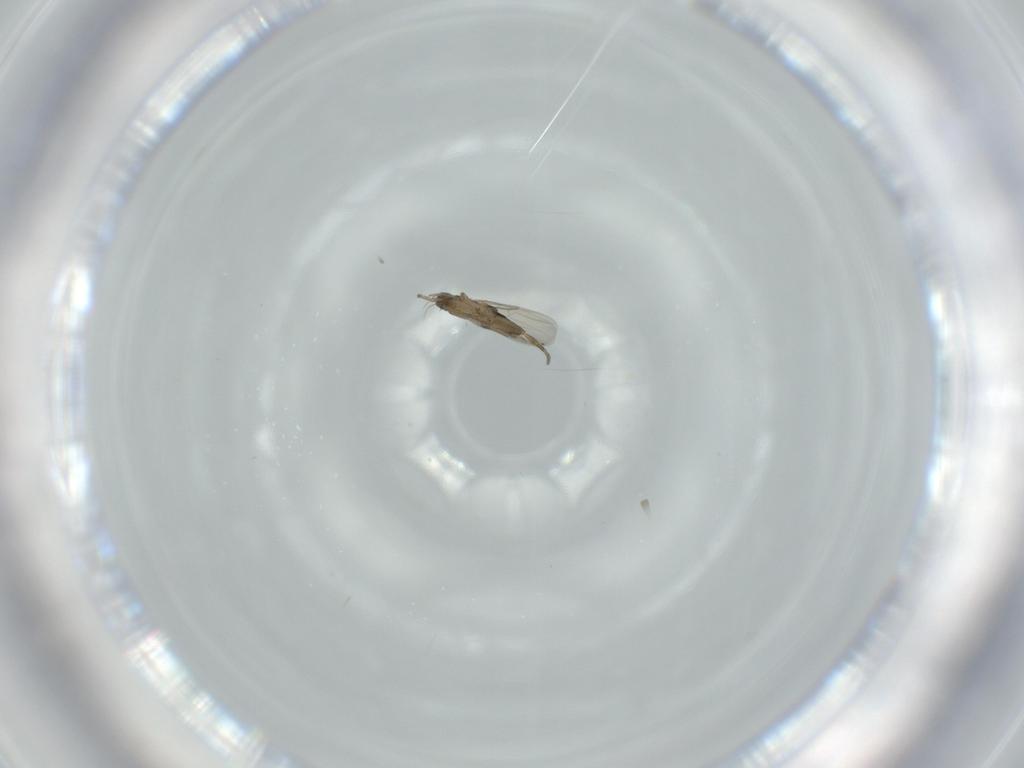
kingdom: Animalia
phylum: Arthropoda
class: Insecta
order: Diptera
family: Phoridae
